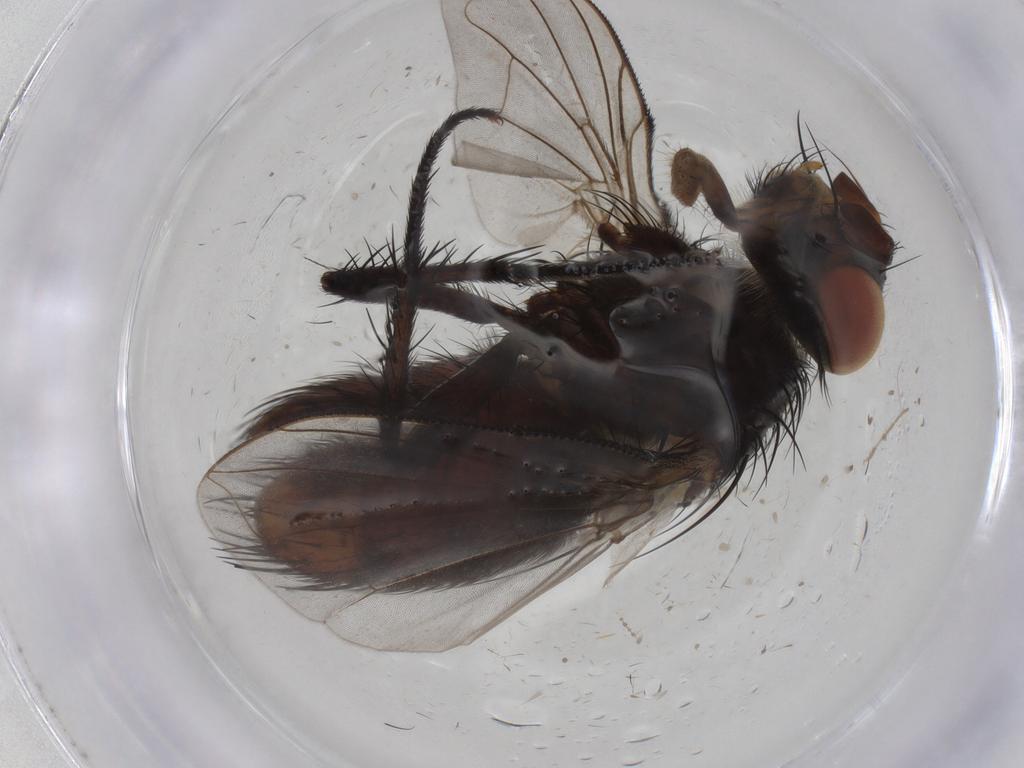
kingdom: Animalia
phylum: Arthropoda
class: Insecta
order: Diptera
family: Tachinidae
